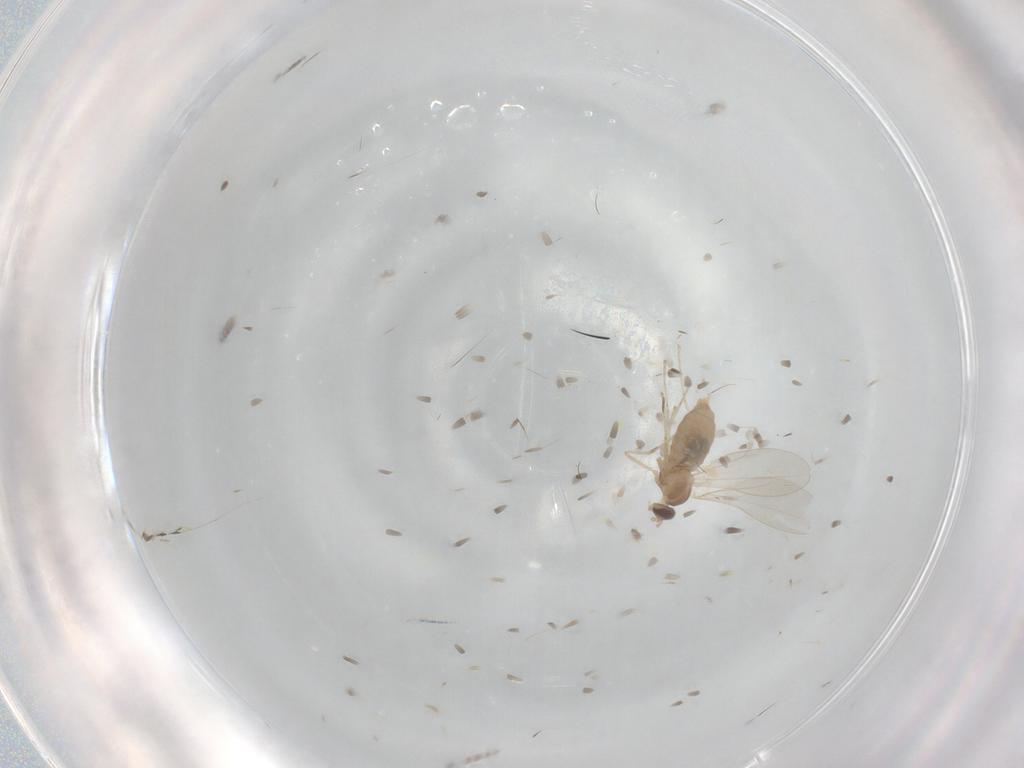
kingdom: Animalia
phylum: Arthropoda
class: Insecta
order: Diptera
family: Cecidomyiidae
